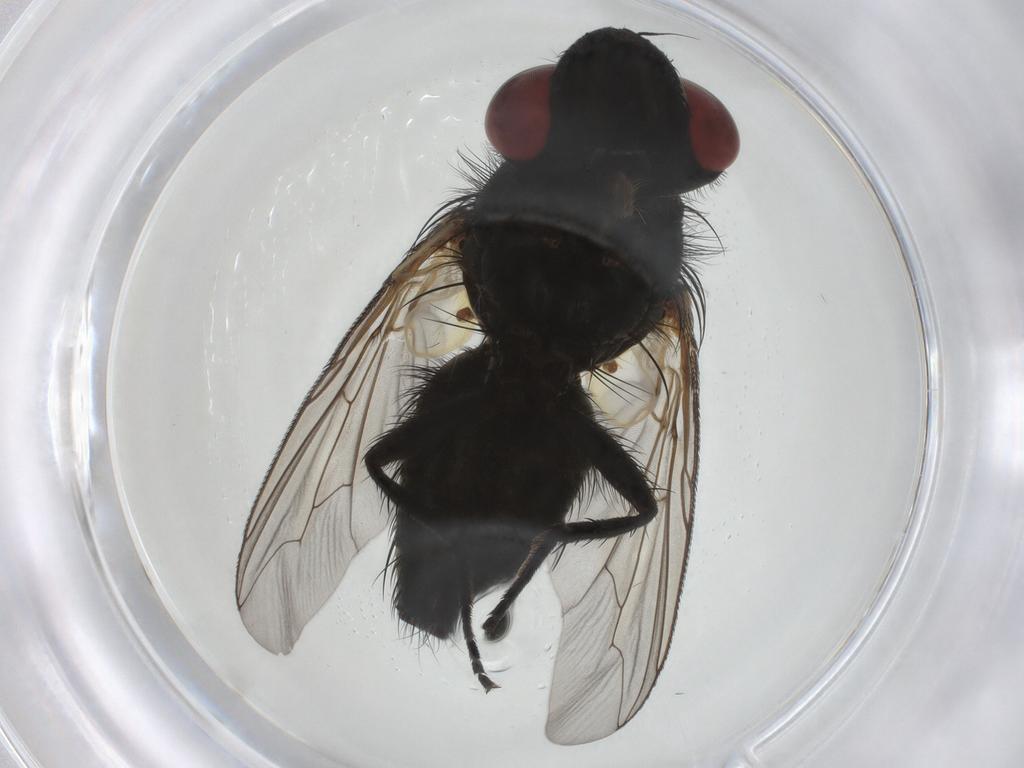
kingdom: Animalia
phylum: Arthropoda
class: Insecta
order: Diptera
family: Sarcophagidae
